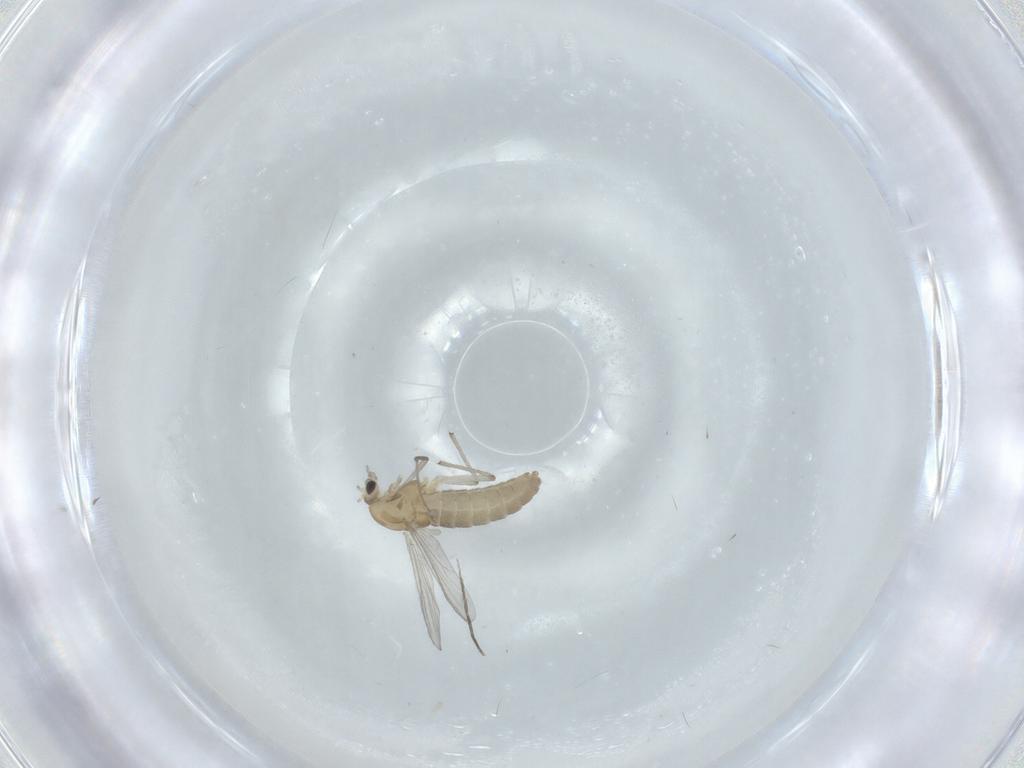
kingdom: Animalia
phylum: Arthropoda
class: Insecta
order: Diptera
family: Chironomidae
